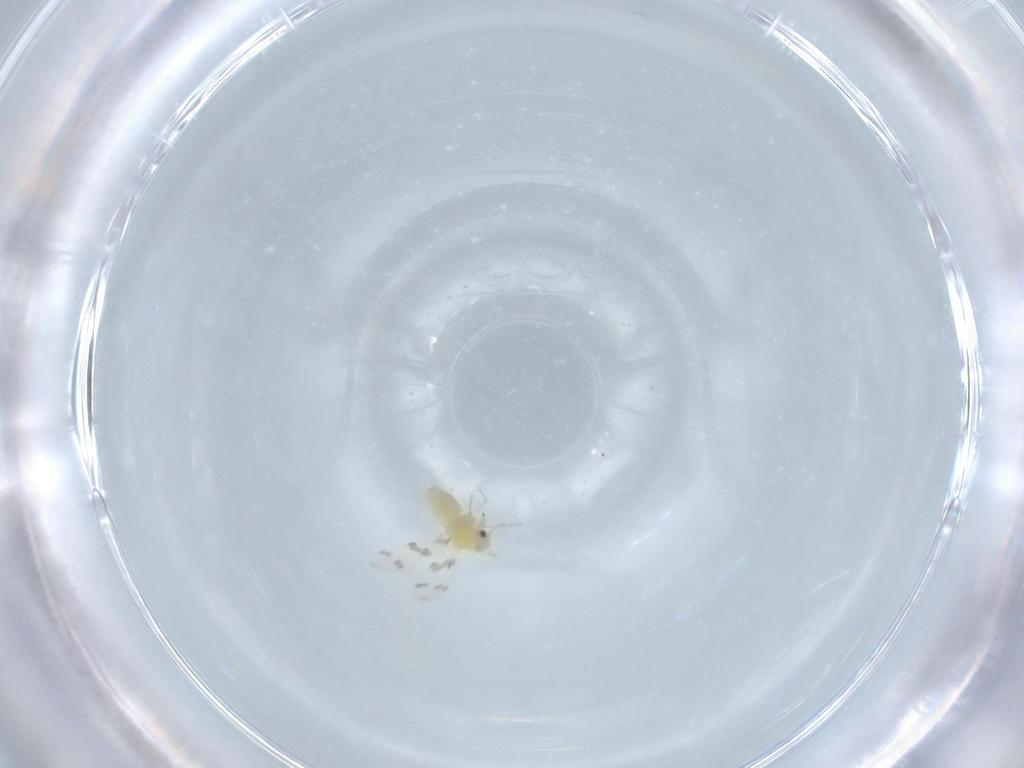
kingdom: Animalia
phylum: Arthropoda
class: Insecta
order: Hemiptera
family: Aleyrodidae
